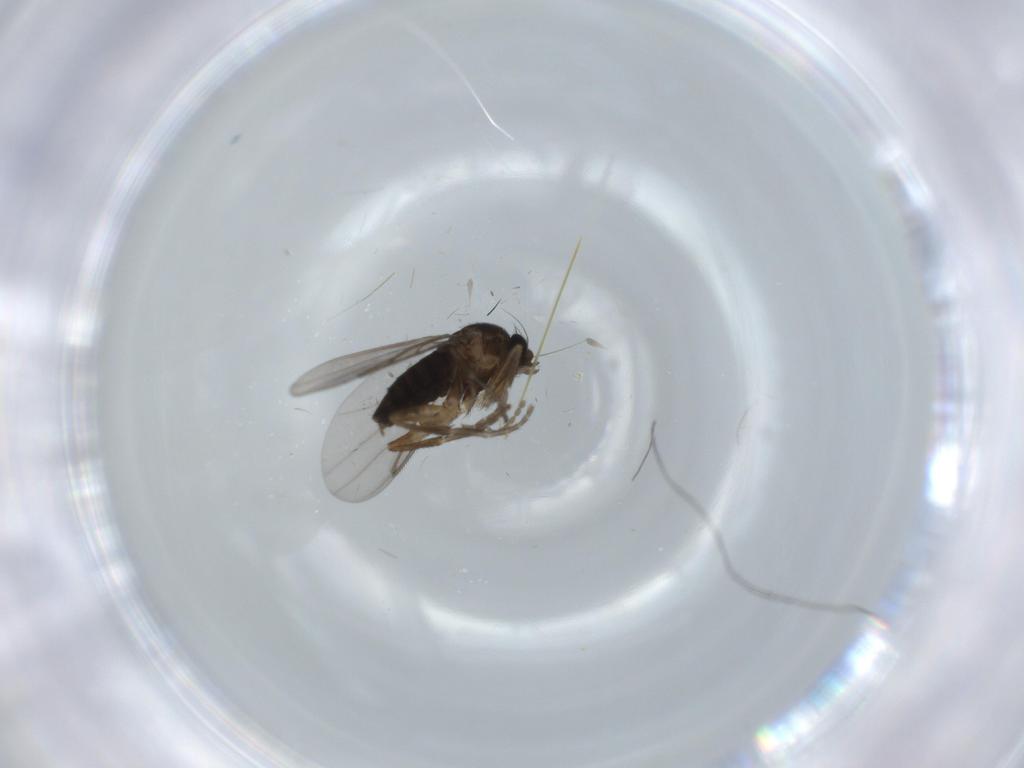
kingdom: Animalia
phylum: Arthropoda
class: Insecta
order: Diptera
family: Cecidomyiidae
